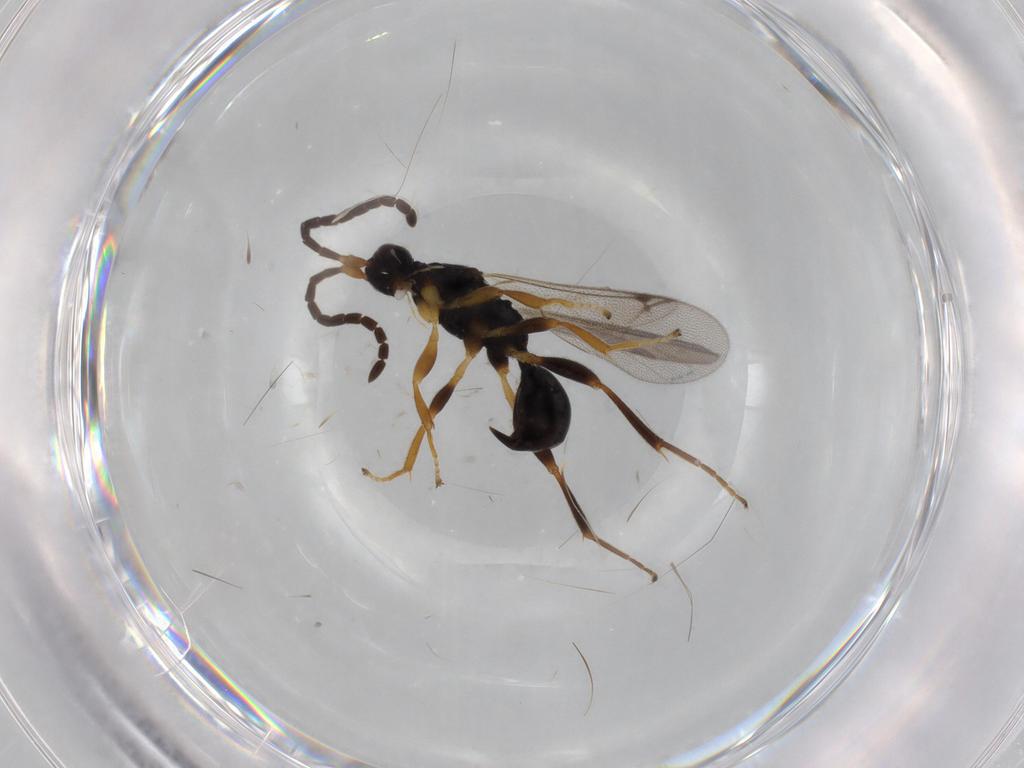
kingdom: Animalia
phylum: Arthropoda
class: Insecta
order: Hymenoptera
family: Proctotrupidae
